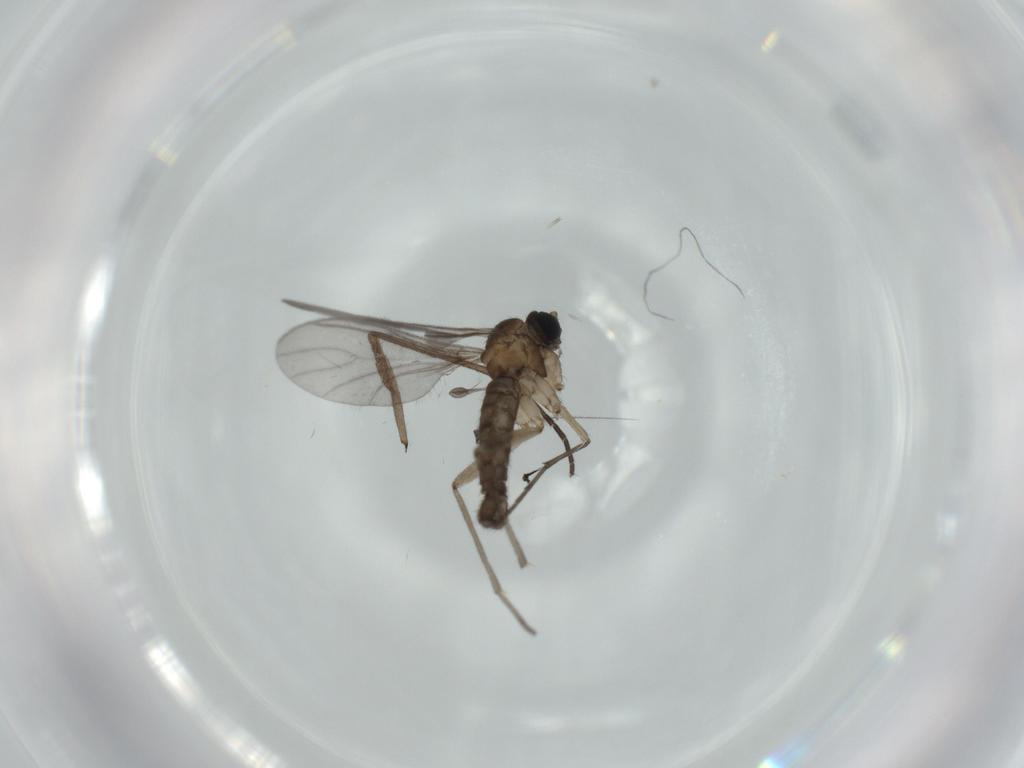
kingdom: Animalia
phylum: Arthropoda
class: Insecta
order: Diptera
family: Dolichopodidae
